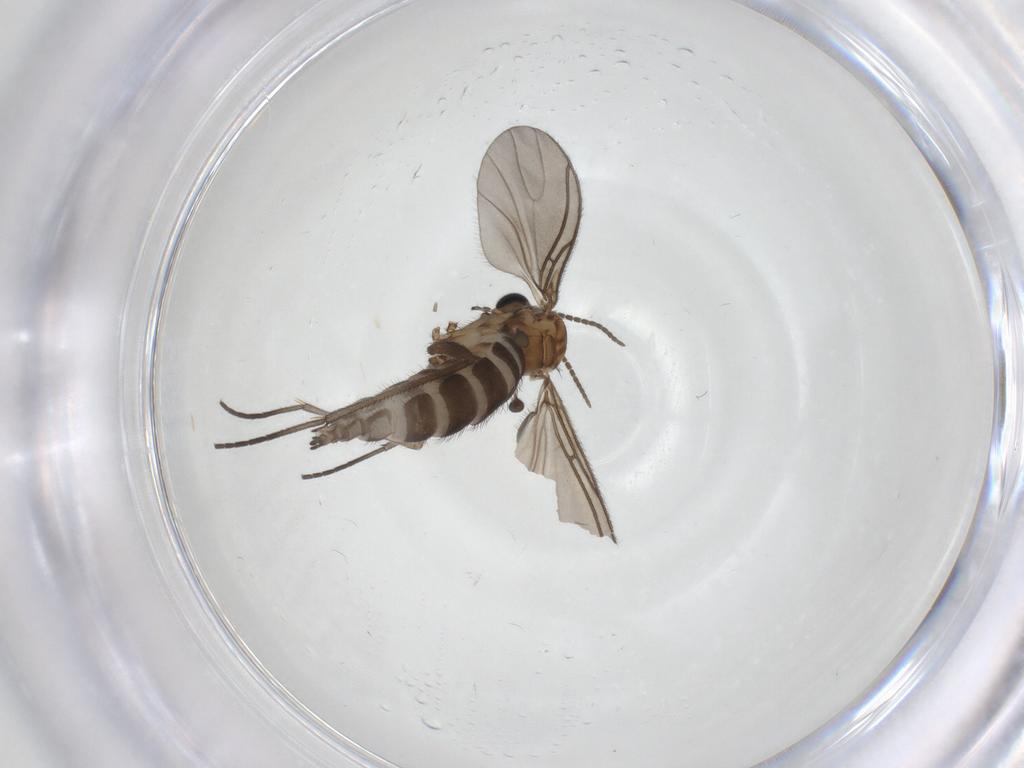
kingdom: Animalia
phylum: Arthropoda
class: Insecta
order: Diptera
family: Sciaridae
